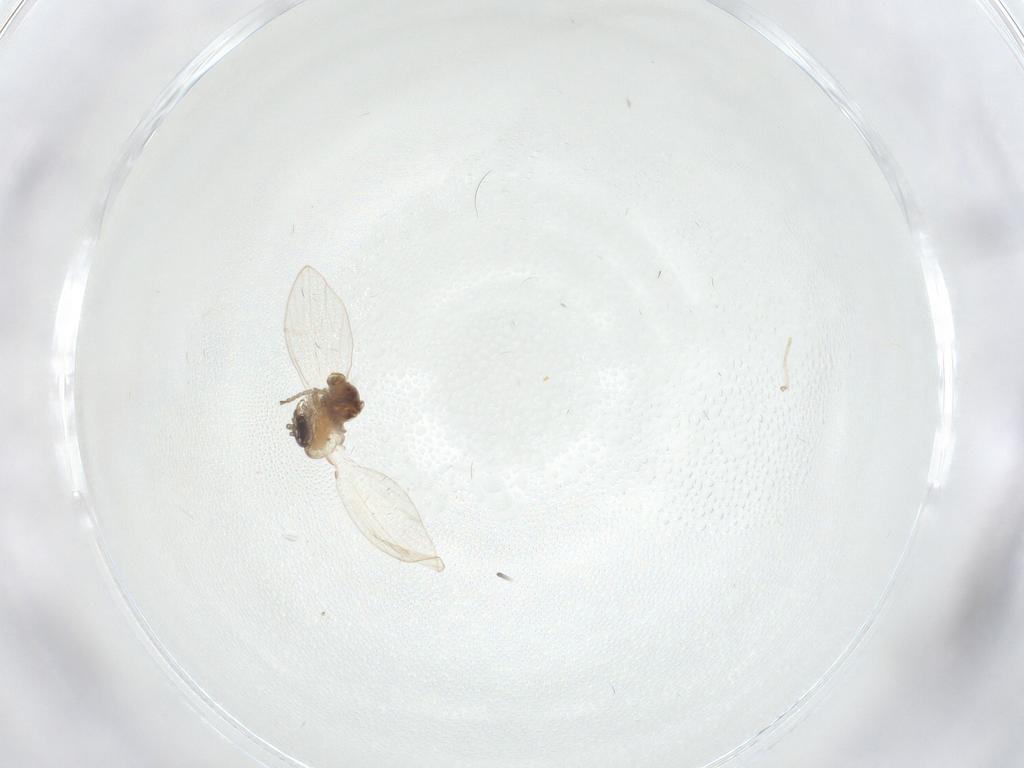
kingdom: Animalia
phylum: Arthropoda
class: Insecta
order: Diptera
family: Psychodidae
